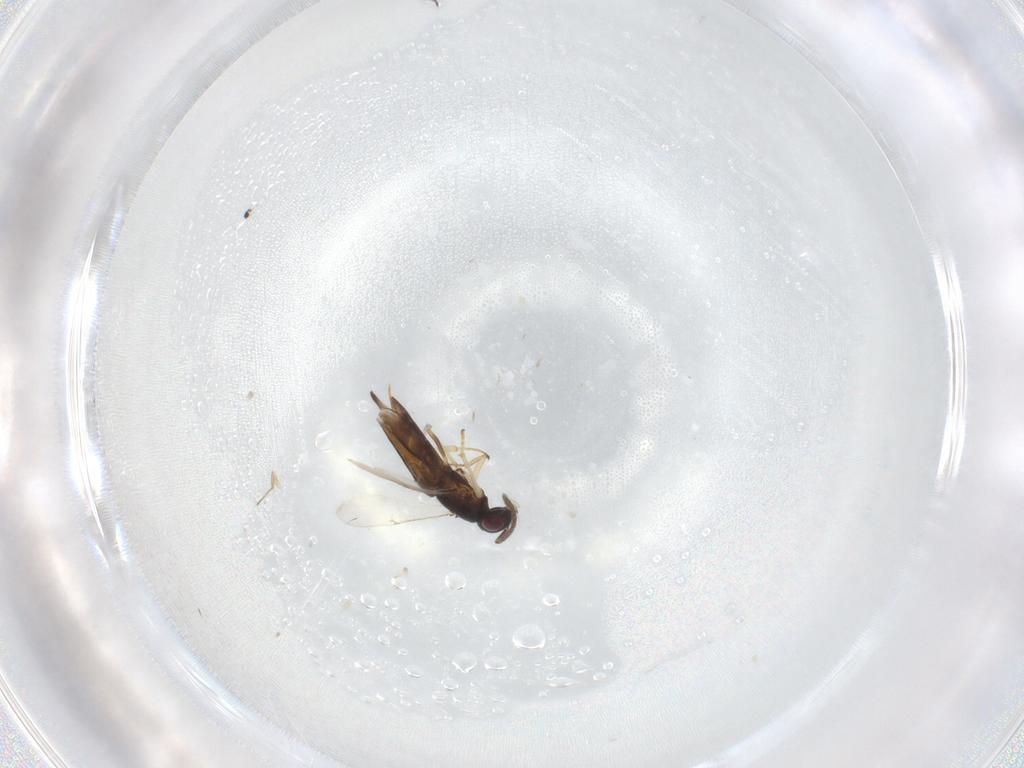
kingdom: Animalia
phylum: Arthropoda
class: Insecta
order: Hymenoptera
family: Encyrtidae
